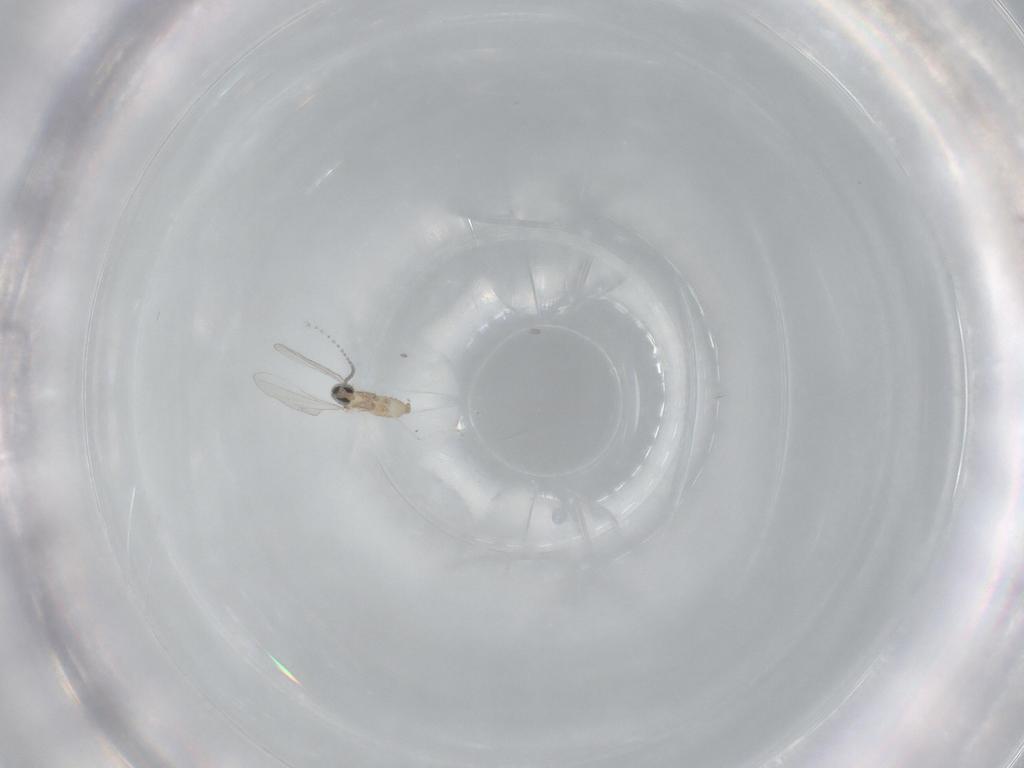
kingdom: Animalia
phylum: Arthropoda
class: Insecta
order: Diptera
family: Cecidomyiidae
